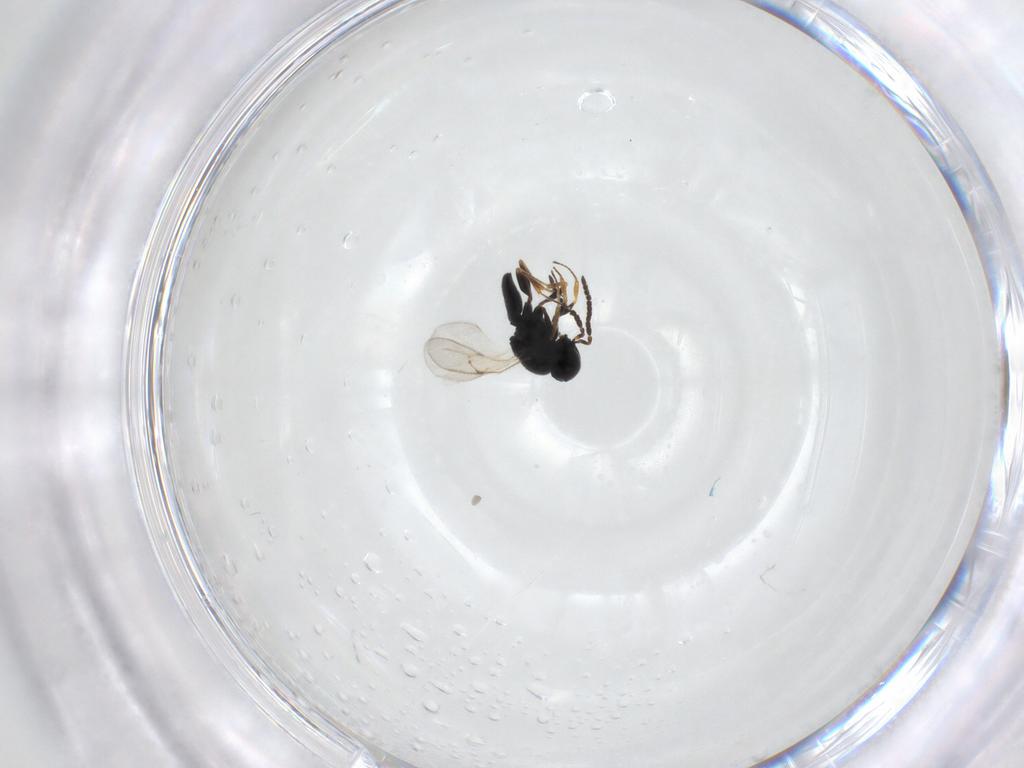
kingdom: Animalia
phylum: Arthropoda
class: Insecta
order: Hymenoptera
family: Scelionidae
